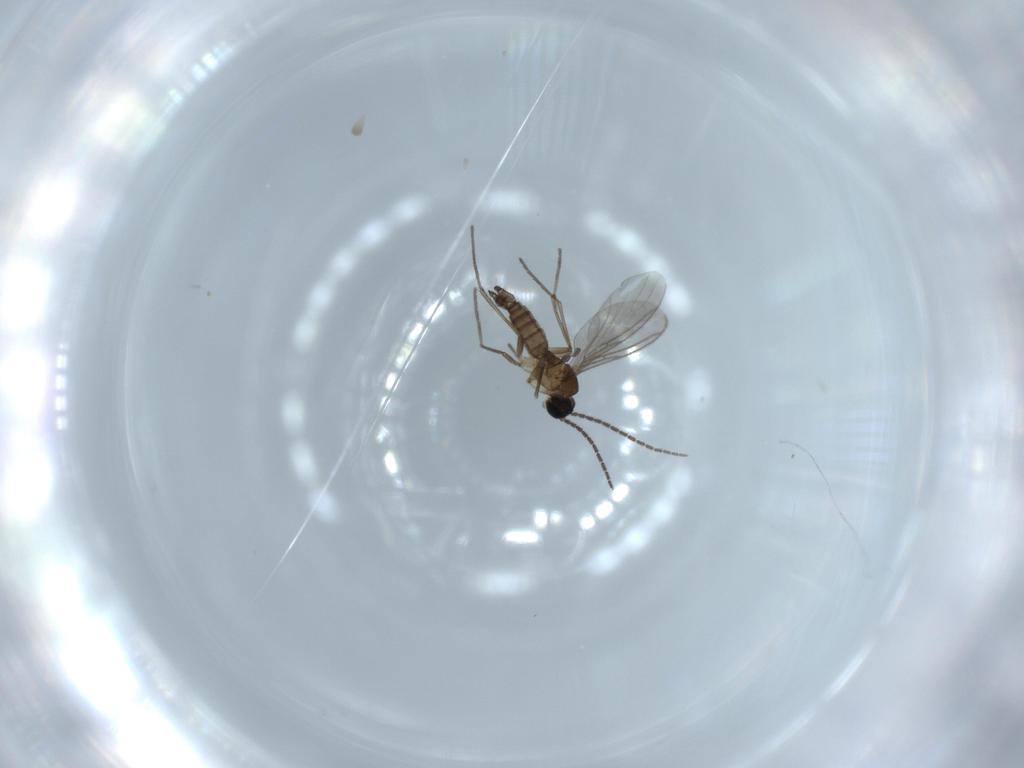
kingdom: Animalia
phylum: Arthropoda
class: Insecta
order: Diptera
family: Sciaridae
